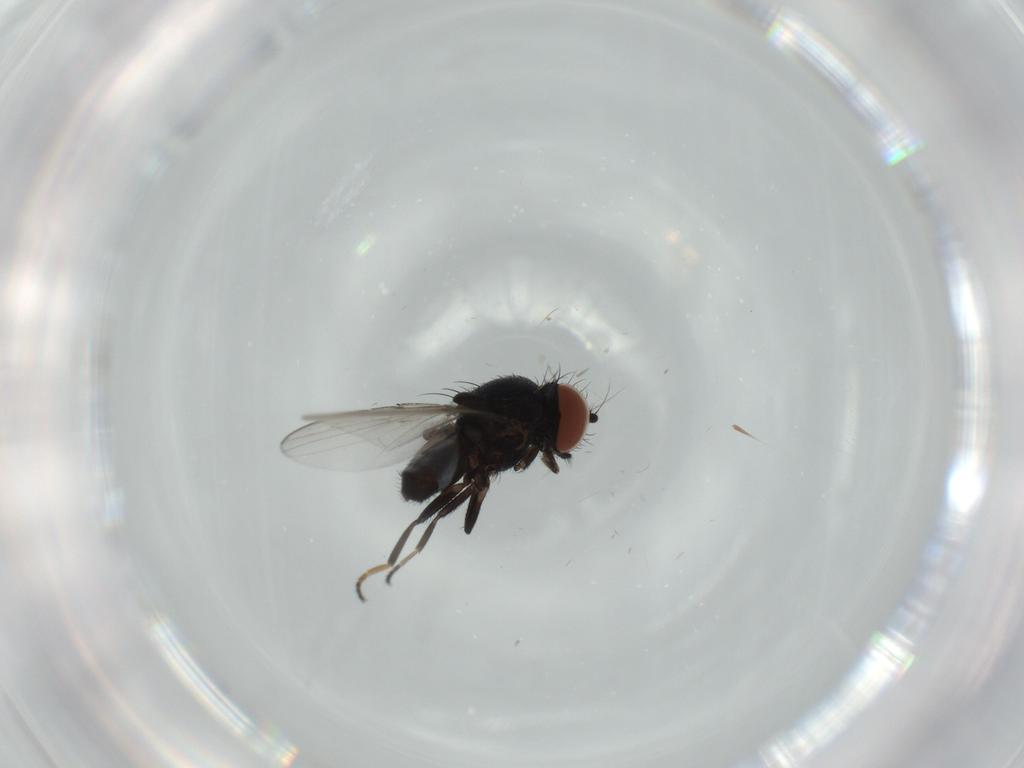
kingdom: Animalia
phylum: Arthropoda
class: Insecta
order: Diptera
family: Milichiidae
